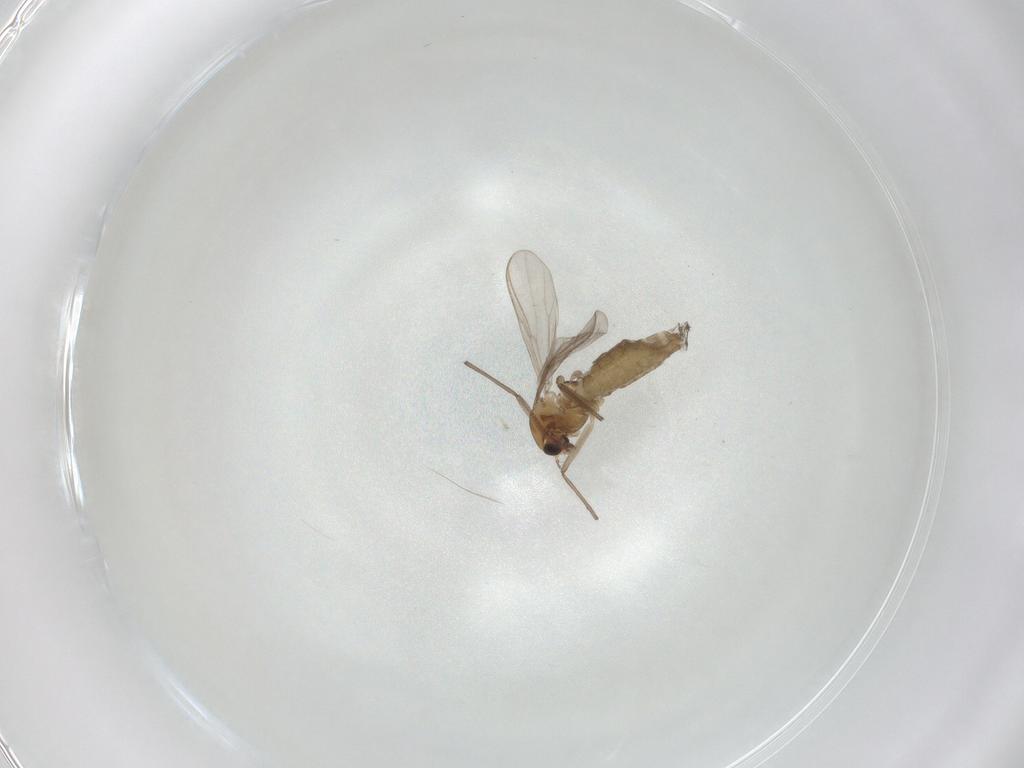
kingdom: Animalia
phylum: Arthropoda
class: Insecta
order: Diptera
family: Chironomidae
